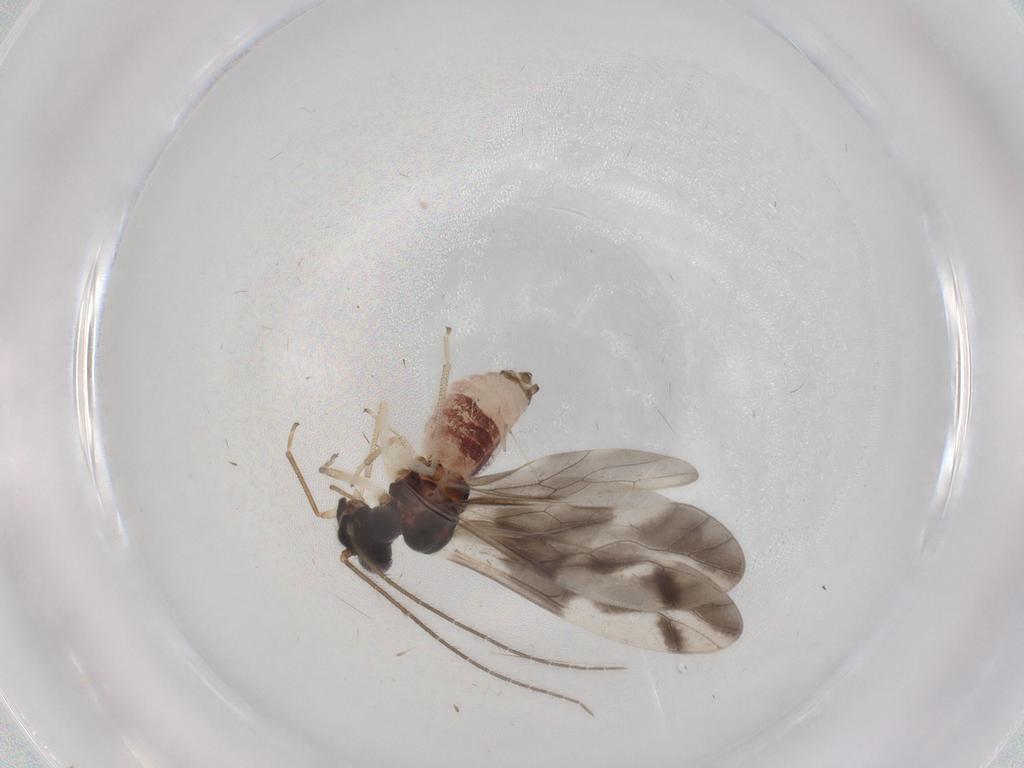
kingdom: Animalia
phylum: Arthropoda
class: Insecta
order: Psocodea
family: Caeciliusidae
